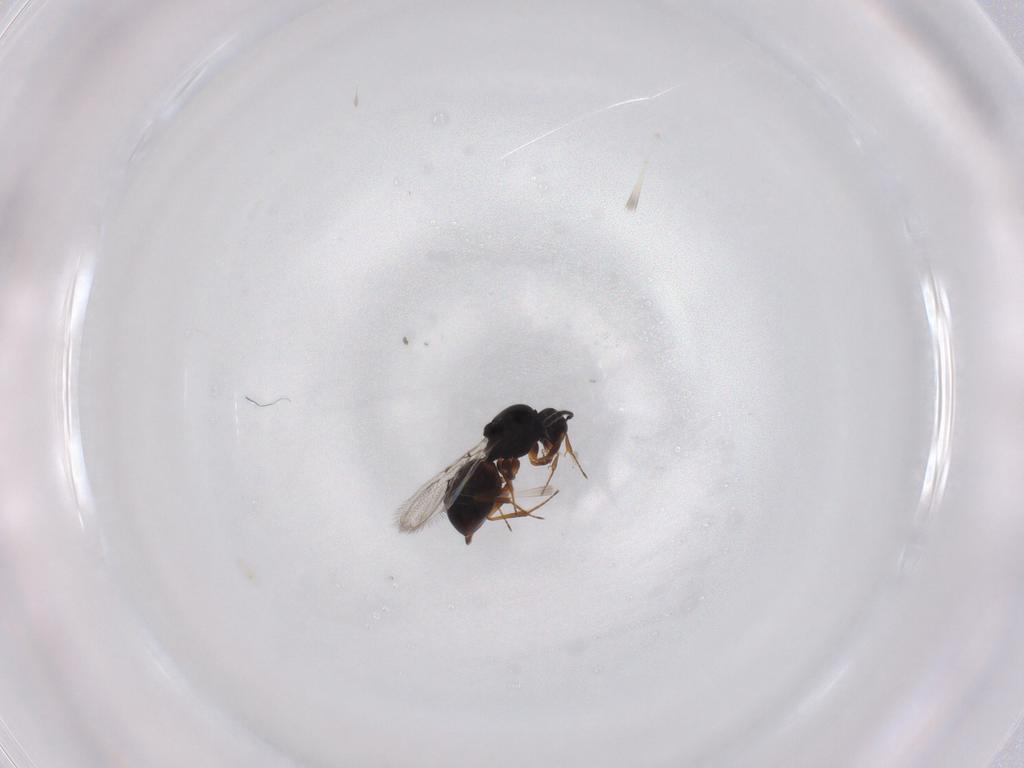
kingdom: Animalia
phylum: Arthropoda
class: Insecta
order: Hymenoptera
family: Figitidae
